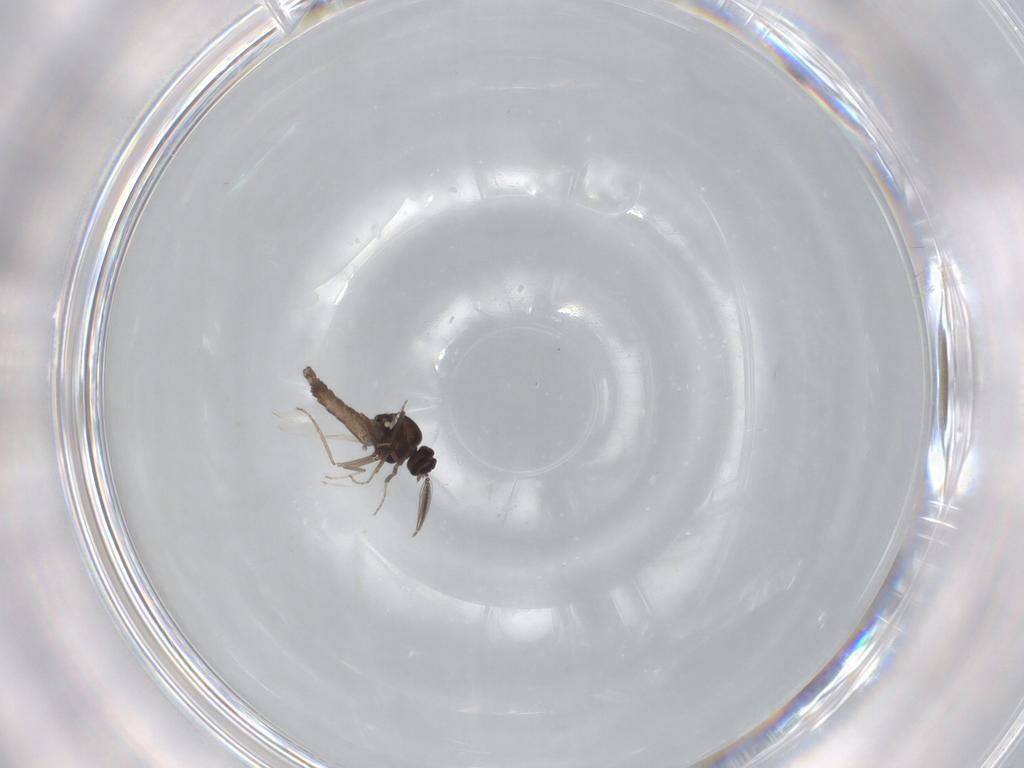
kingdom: Animalia
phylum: Arthropoda
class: Insecta
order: Diptera
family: Ceratopogonidae
